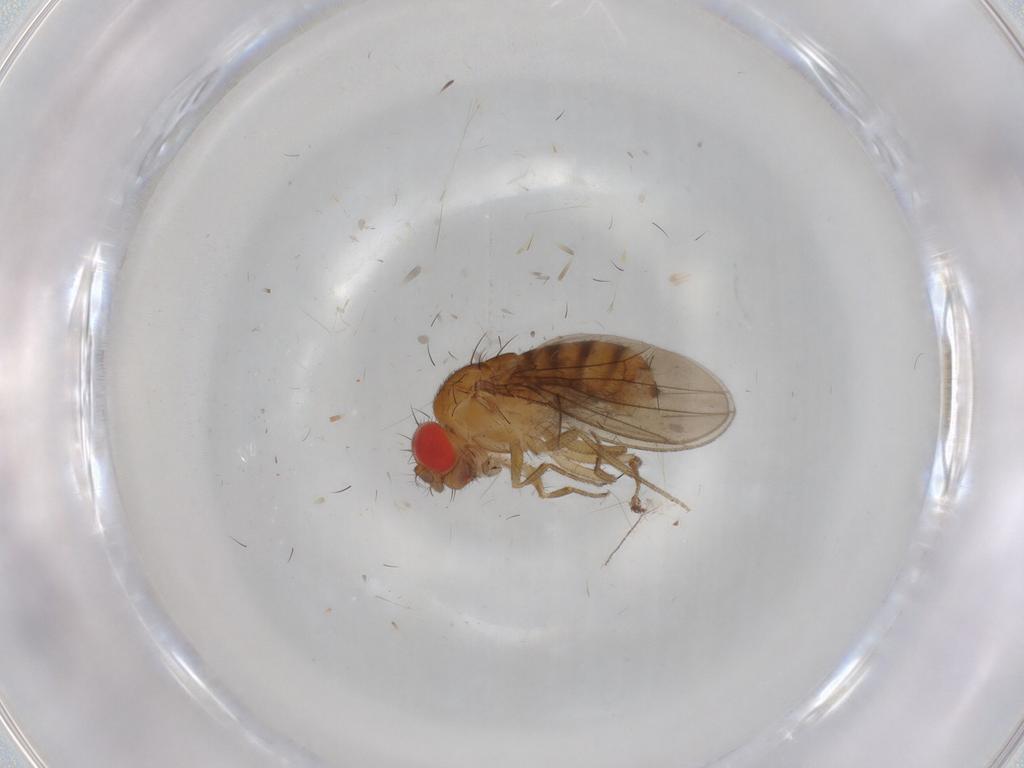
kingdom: Animalia
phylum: Arthropoda
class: Insecta
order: Diptera
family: Drosophilidae
